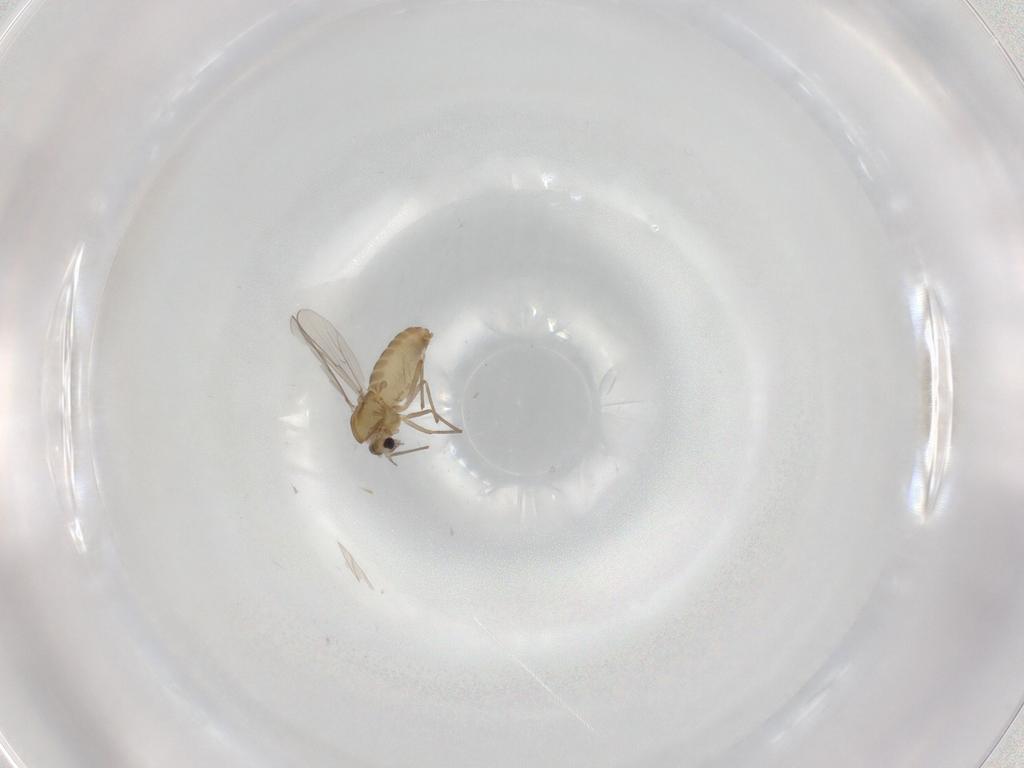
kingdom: Animalia
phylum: Arthropoda
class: Insecta
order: Diptera
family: Chironomidae
